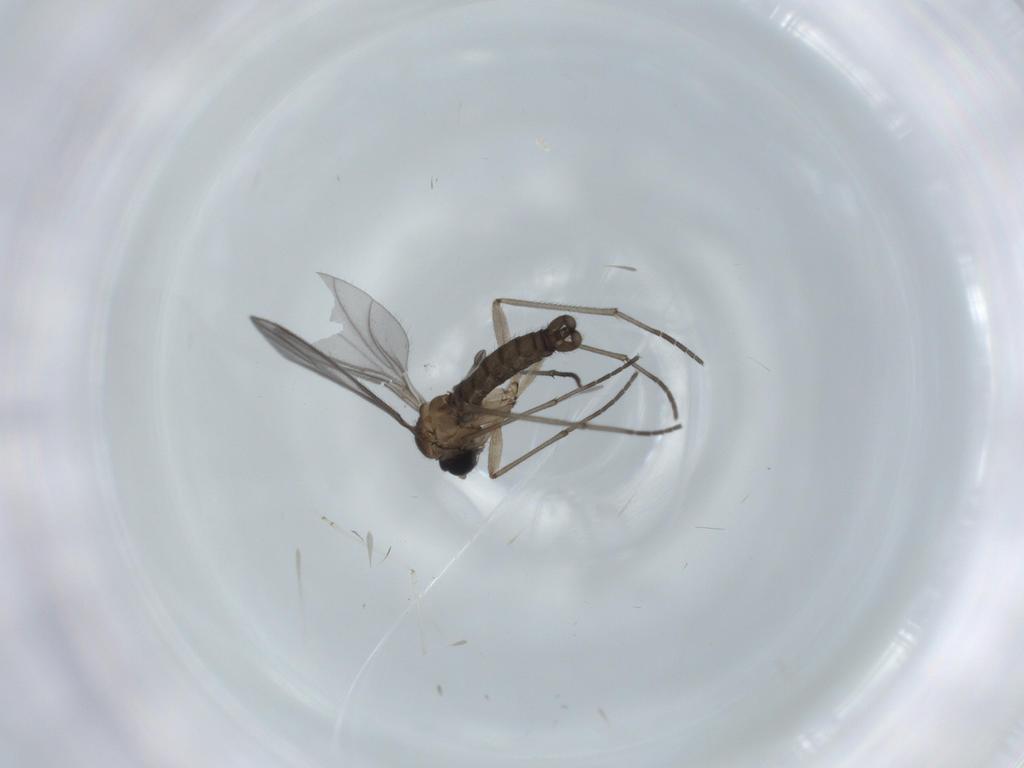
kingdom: Animalia
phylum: Arthropoda
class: Insecta
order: Diptera
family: Sciaridae
